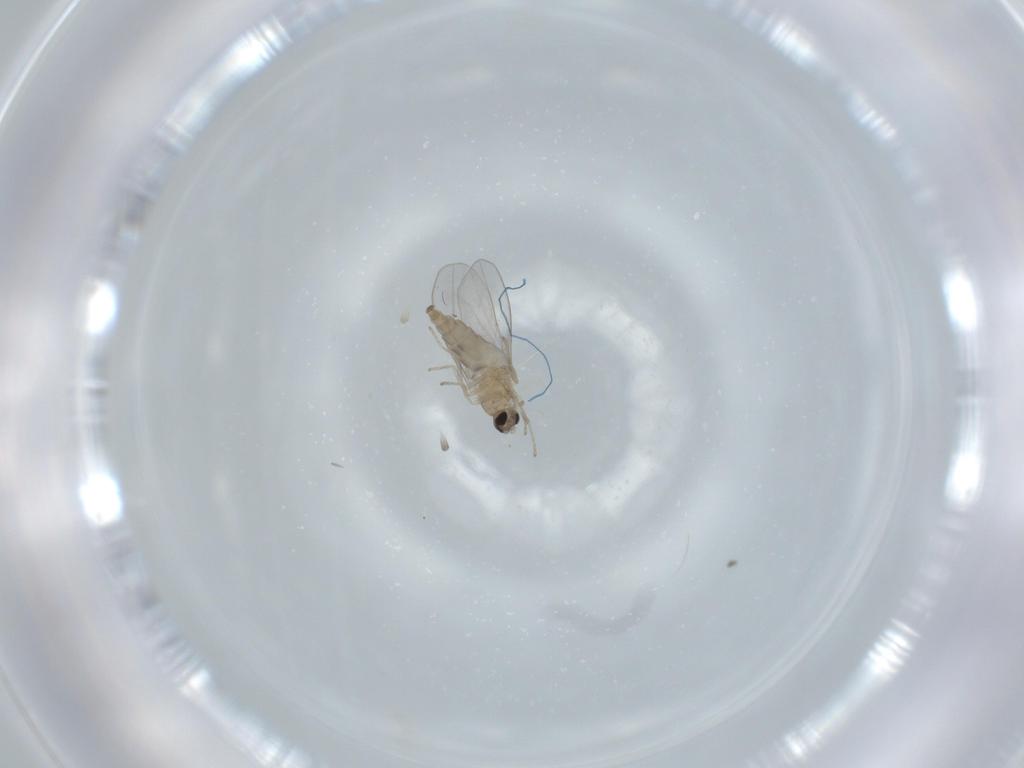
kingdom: Animalia
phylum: Arthropoda
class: Insecta
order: Diptera
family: Cecidomyiidae
